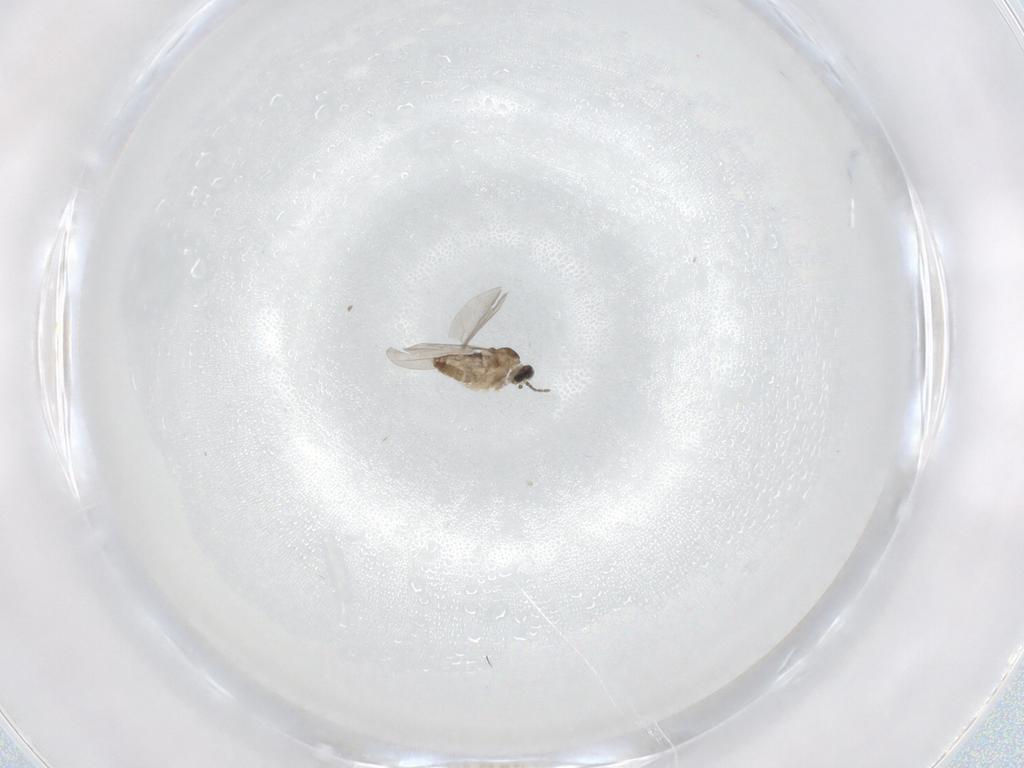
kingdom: Animalia
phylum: Arthropoda
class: Insecta
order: Diptera
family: Cecidomyiidae
